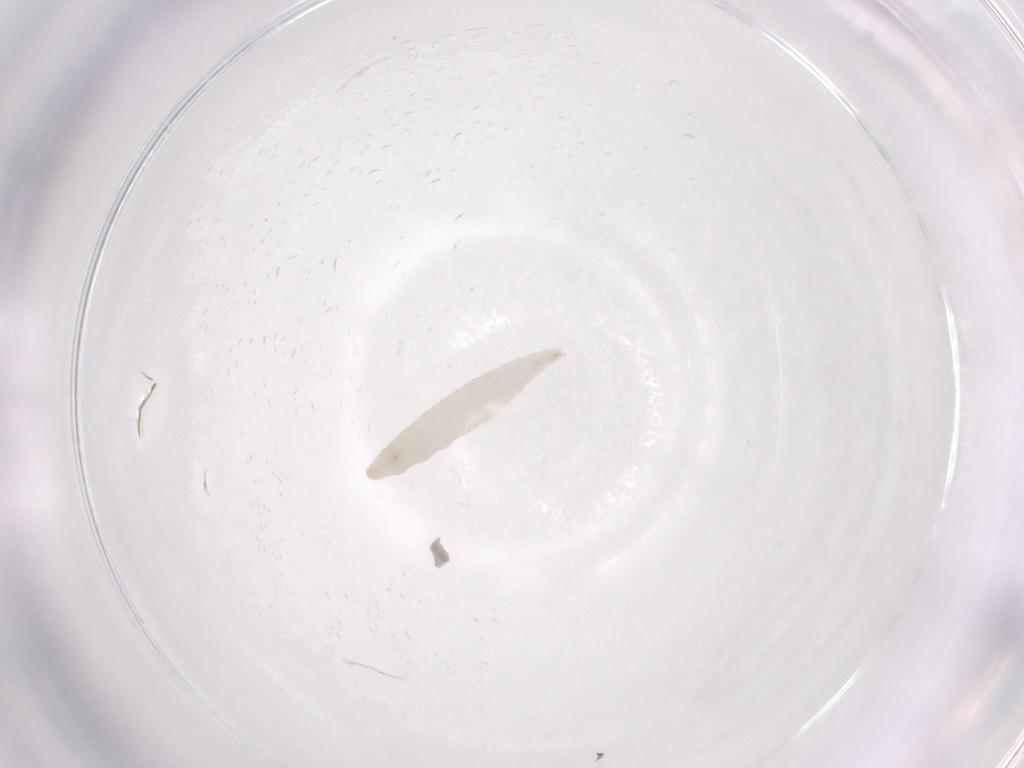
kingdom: Animalia
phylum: Arthropoda
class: Insecta
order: Diptera
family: Phoridae
